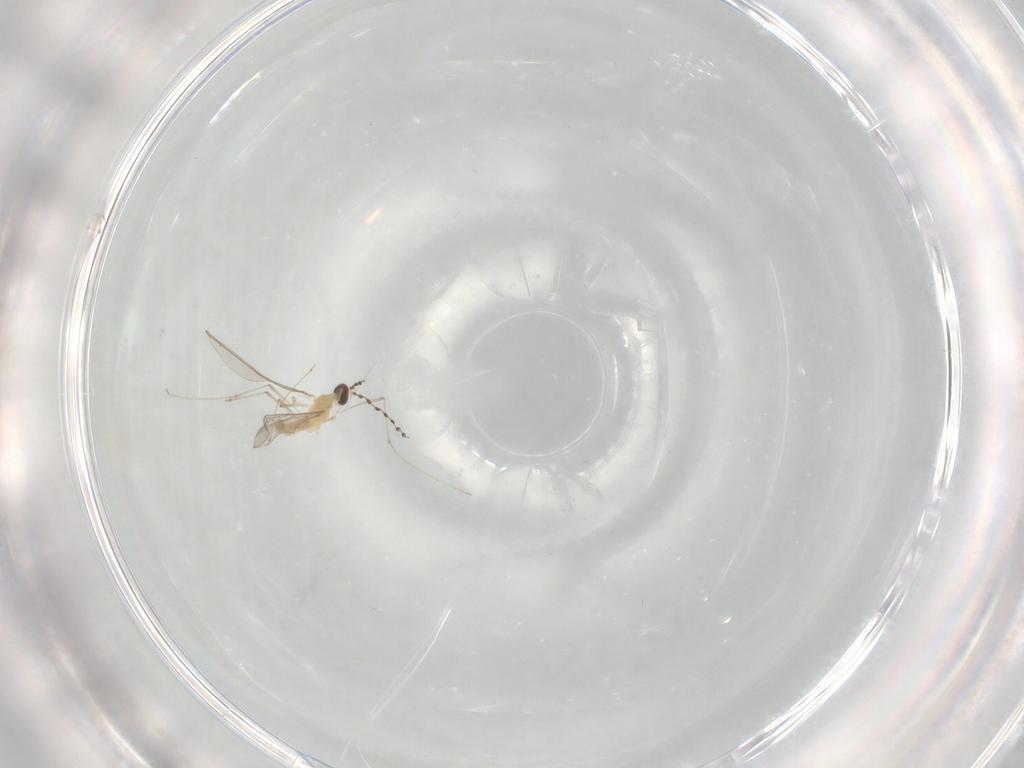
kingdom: Animalia
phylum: Arthropoda
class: Insecta
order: Diptera
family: Cecidomyiidae
